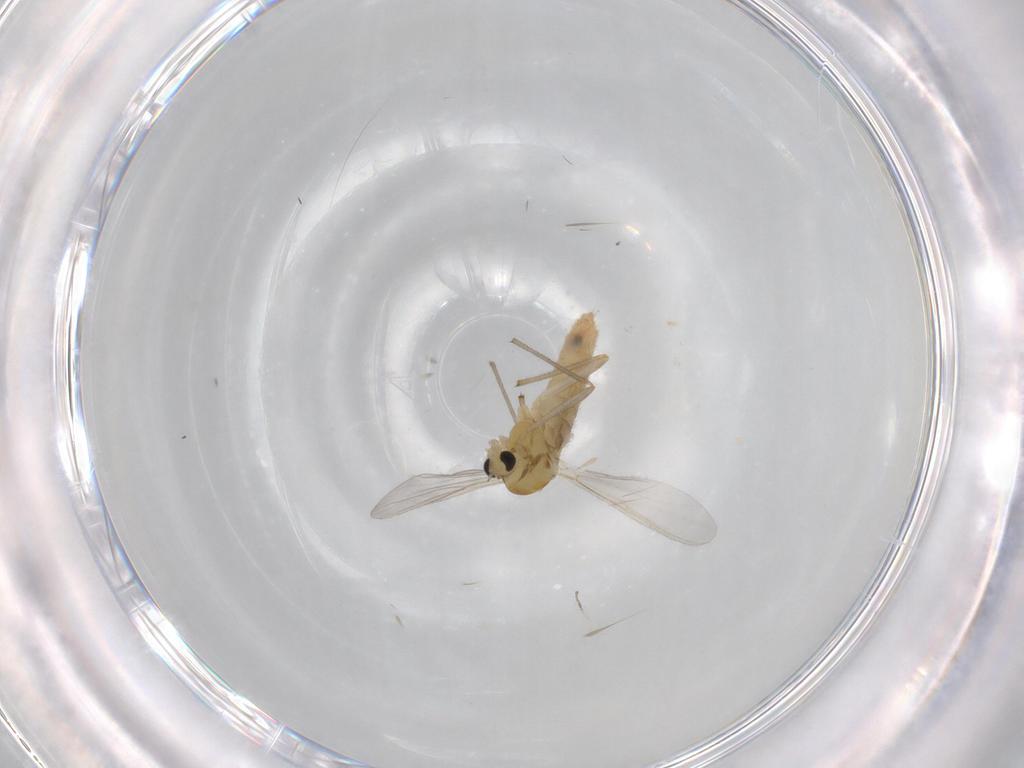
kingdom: Animalia
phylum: Arthropoda
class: Insecta
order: Diptera
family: Chironomidae
